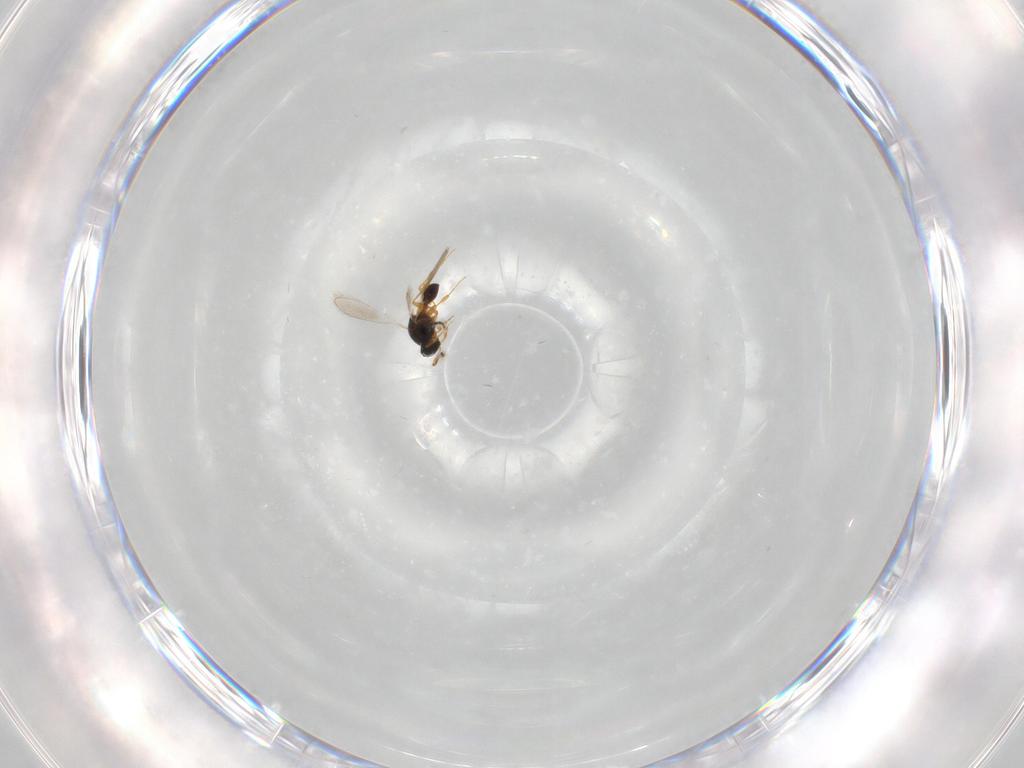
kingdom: Animalia
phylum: Arthropoda
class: Insecta
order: Hymenoptera
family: Platygastridae
